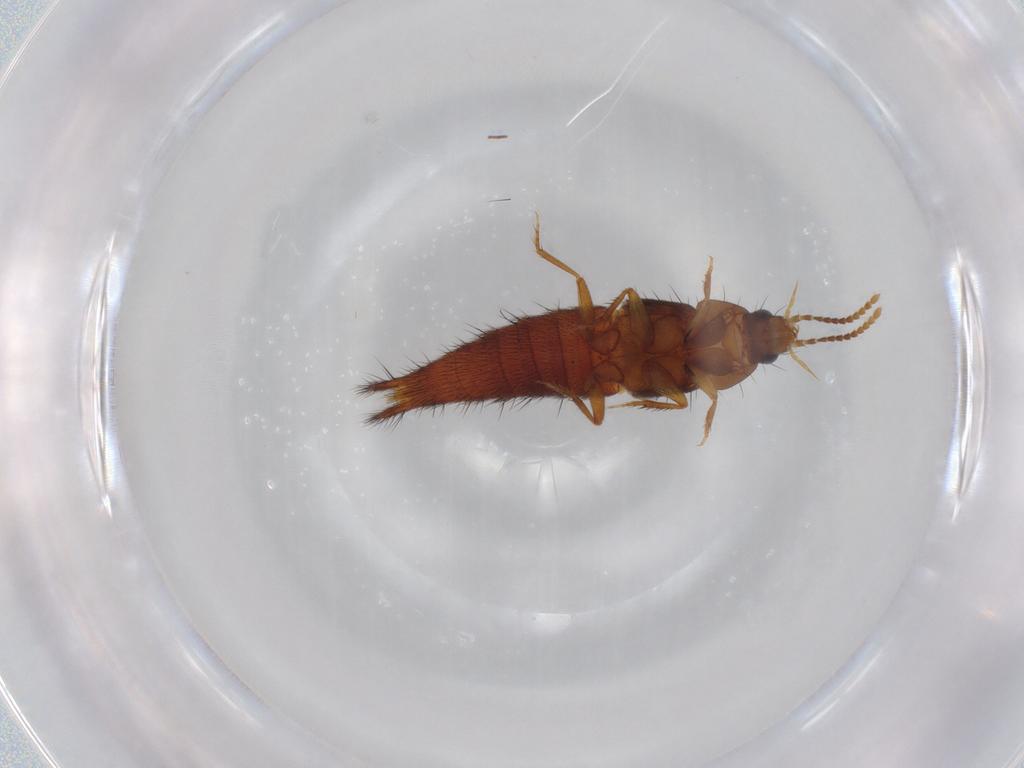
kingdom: Animalia
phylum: Arthropoda
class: Insecta
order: Coleoptera
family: Staphylinidae
